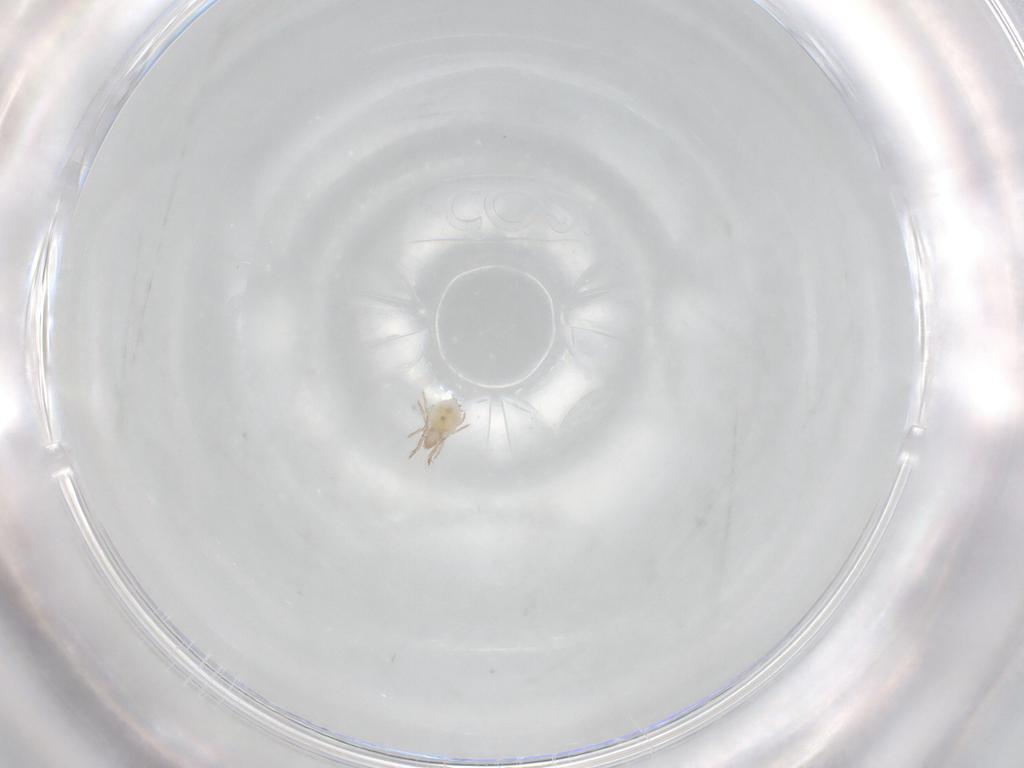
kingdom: Animalia
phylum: Arthropoda
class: Arachnida
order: Sarcoptiformes
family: Ceratoppiidae
